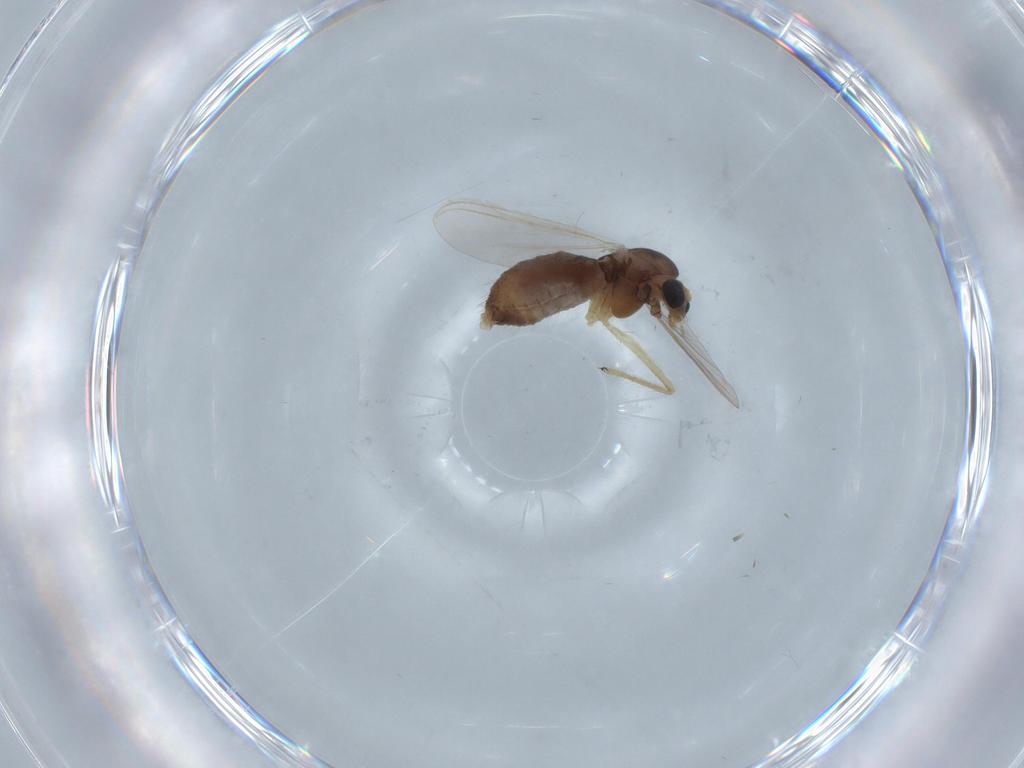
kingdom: Animalia
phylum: Arthropoda
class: Insecta
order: Diptera
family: Chironomidae
